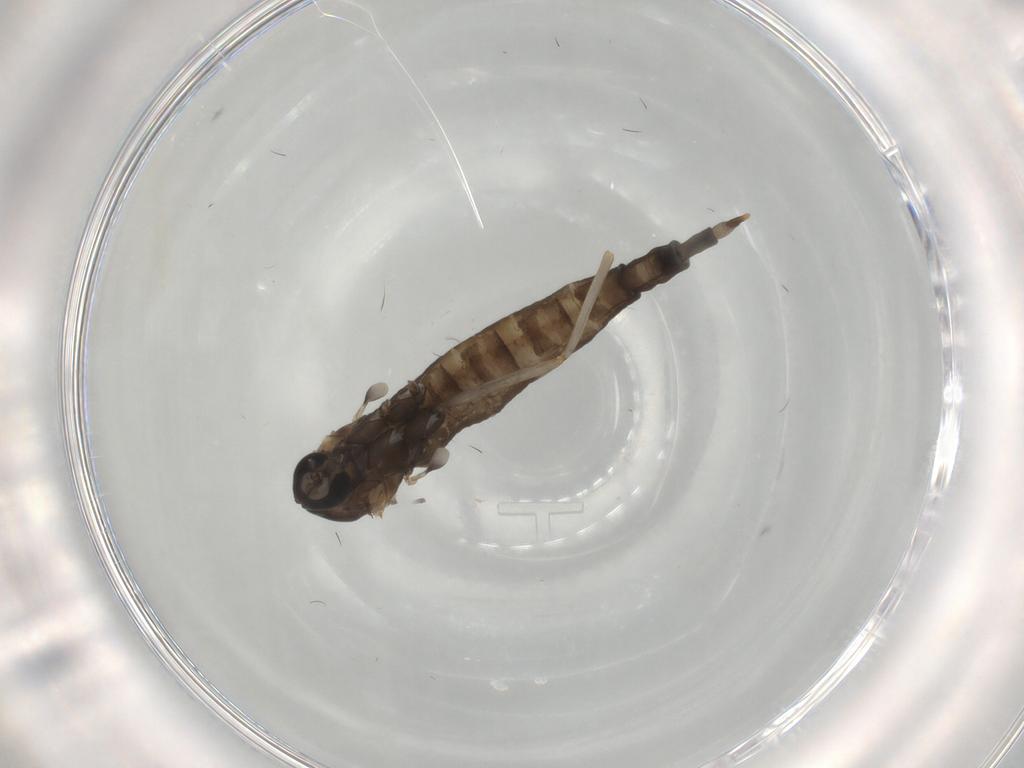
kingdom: Animalia
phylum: Arthropoda
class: Insecta
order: Diptera
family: Cecidomyiidae
